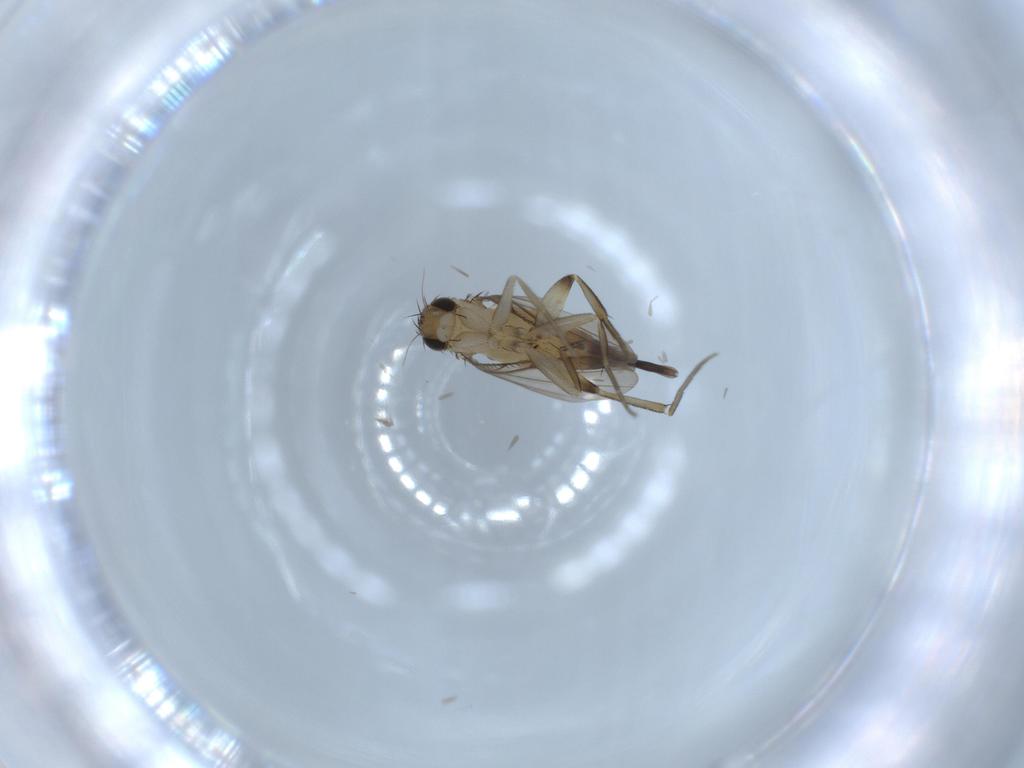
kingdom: Animalia
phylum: Arthropoda
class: Insecta
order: Diptera
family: Phoridae
